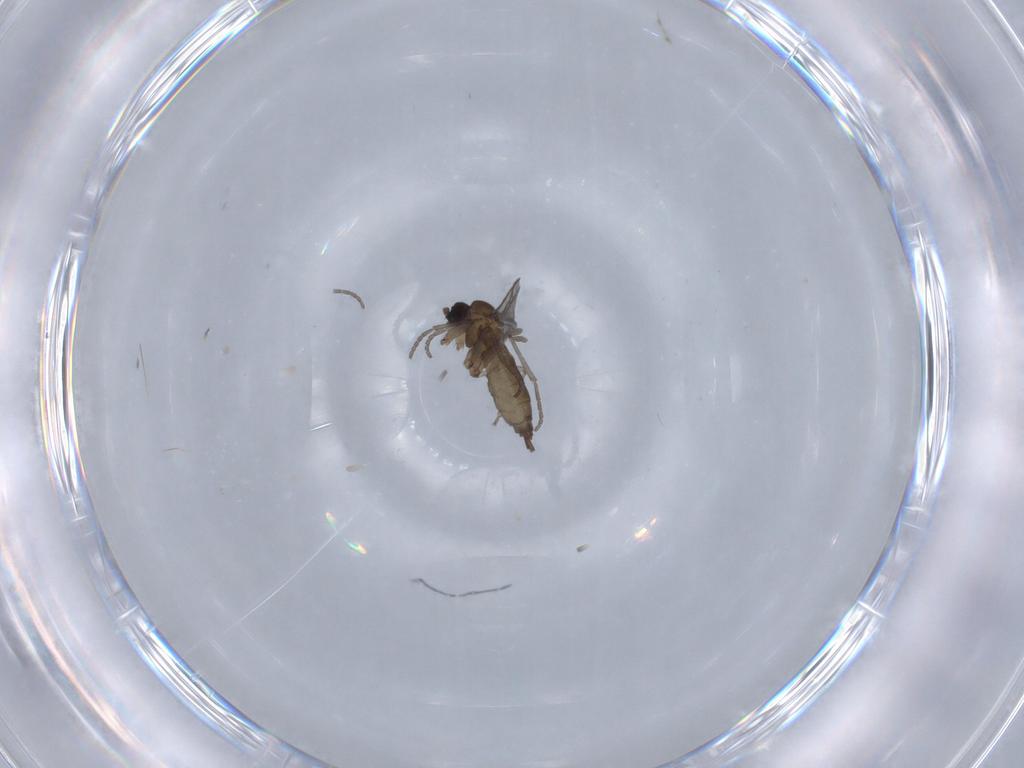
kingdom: Animalia
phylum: Arthropoda
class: Insecta
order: Diptera
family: Sciaridae
